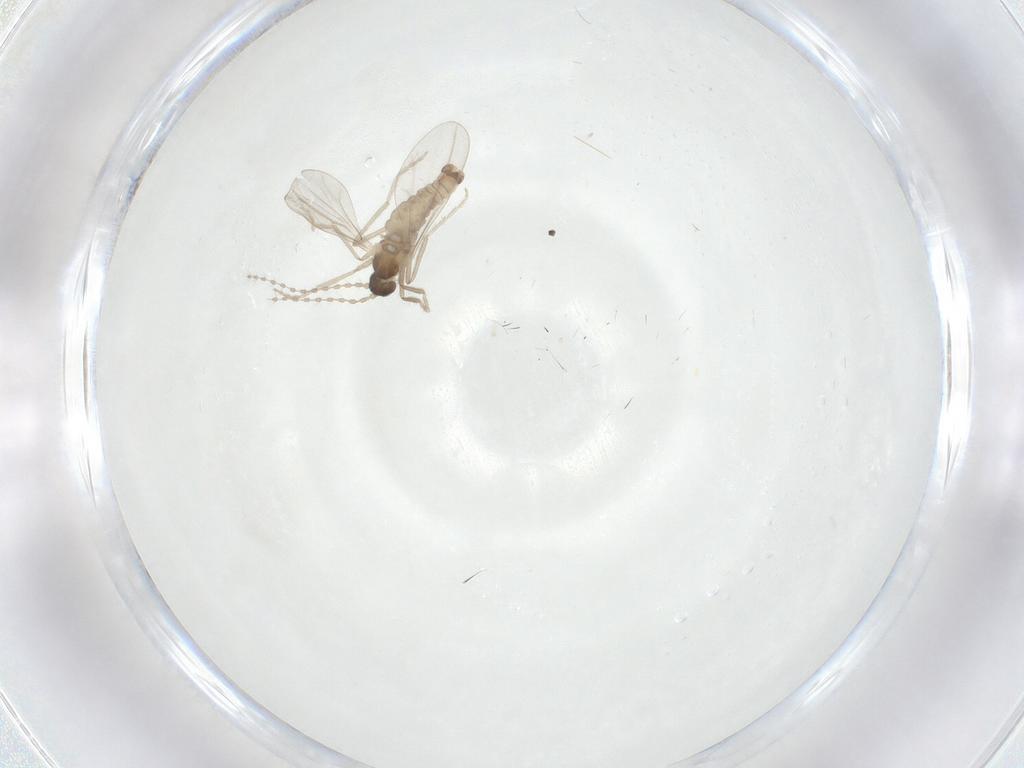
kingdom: Animalia
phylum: Arthropoda
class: Insecta
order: Diptera
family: Cecidomyiidae
